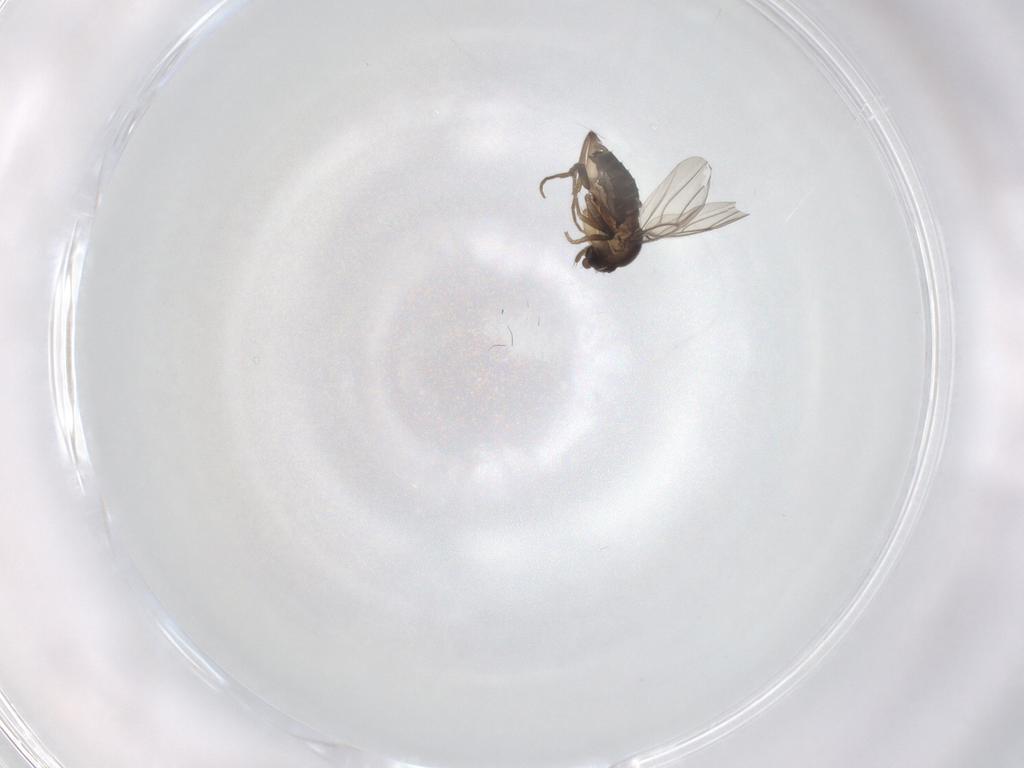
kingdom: Animalia
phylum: Arthropoda
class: Insecta
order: Diptera
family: Phoridae
